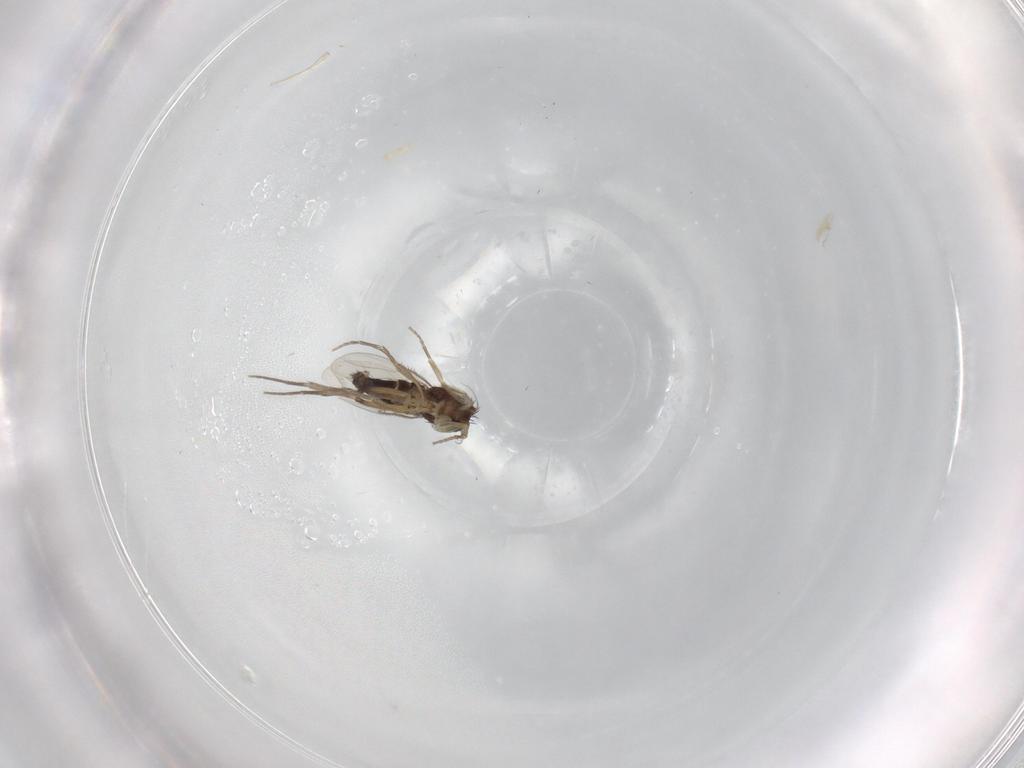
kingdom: Animalia
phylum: Arthropoda
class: Insecta
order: Diptera
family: Phoridae
